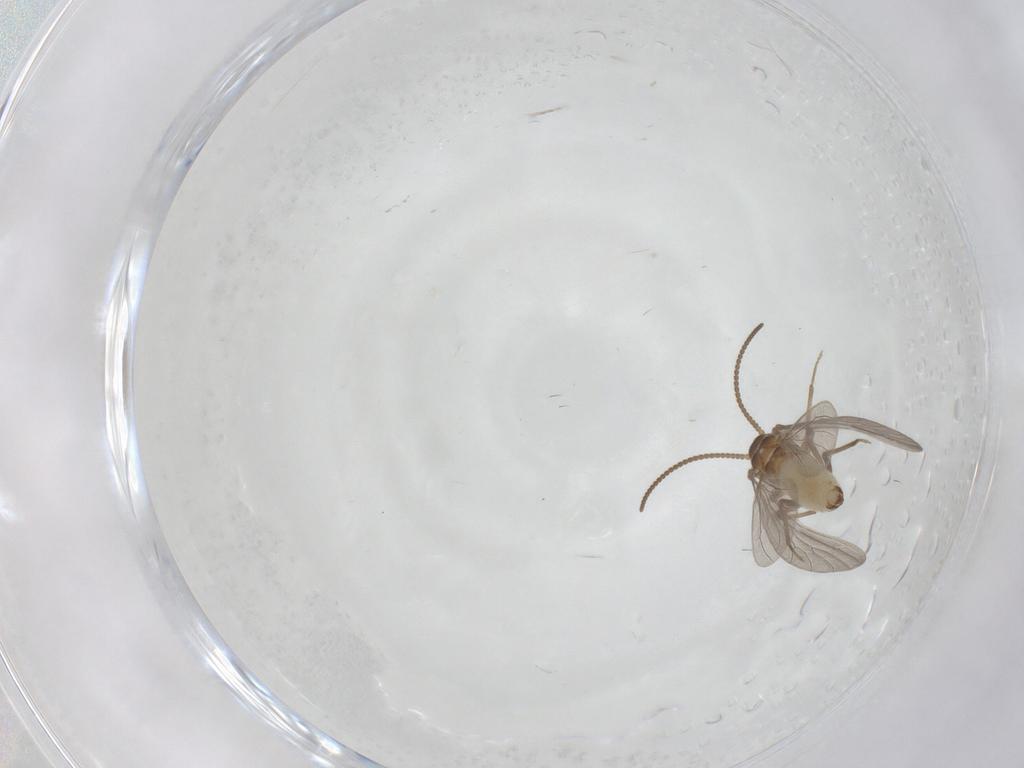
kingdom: Animalia
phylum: Arthropoda
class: Insecta
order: Neuroptera
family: Coniopterygidae
